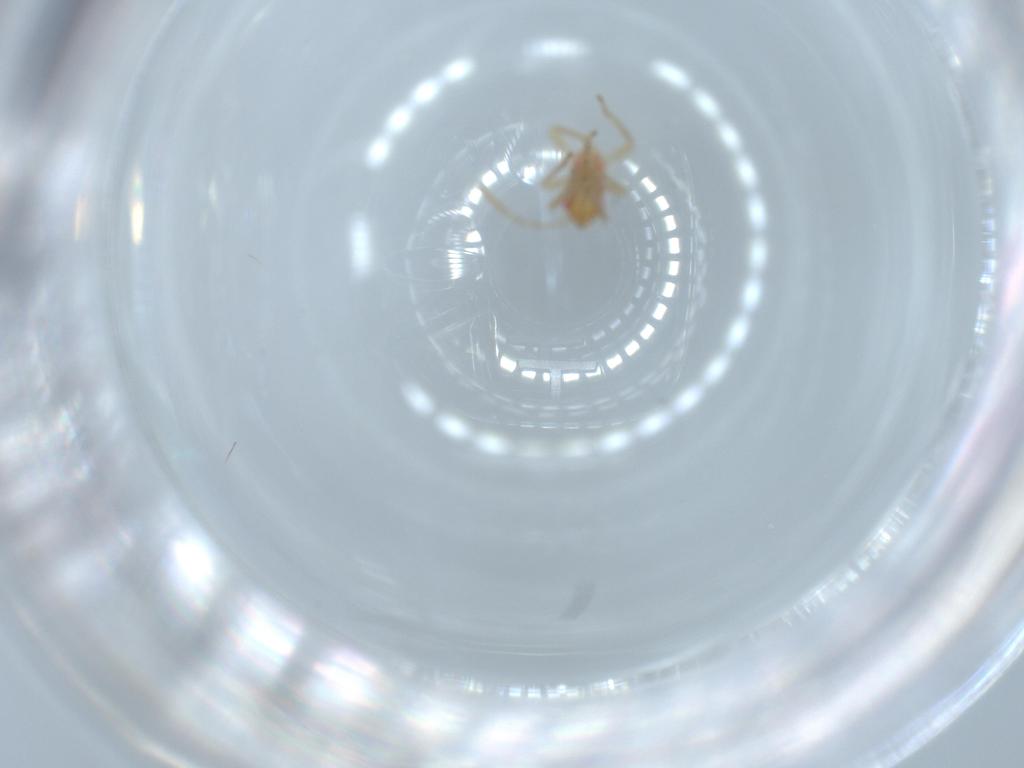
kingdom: Animalia
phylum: Arthropoda
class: Insecta
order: Hemiptera
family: Miridae
